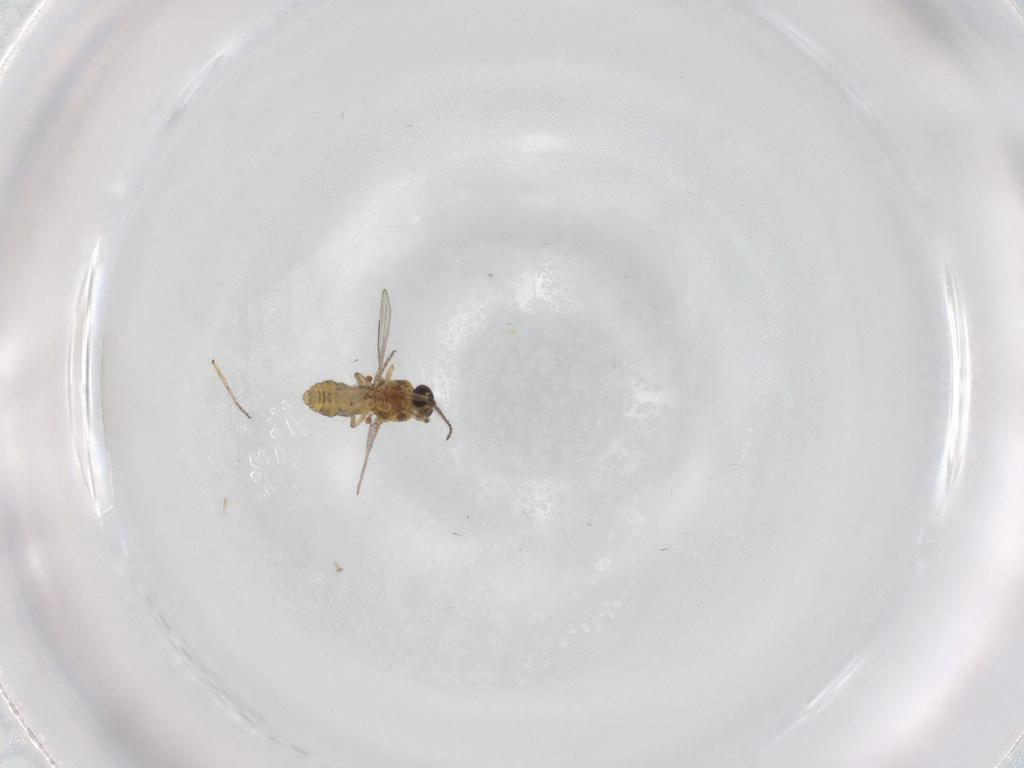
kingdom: Animalia
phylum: Arthropoda
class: Insecta
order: Diptera
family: Ceratopogonidae
